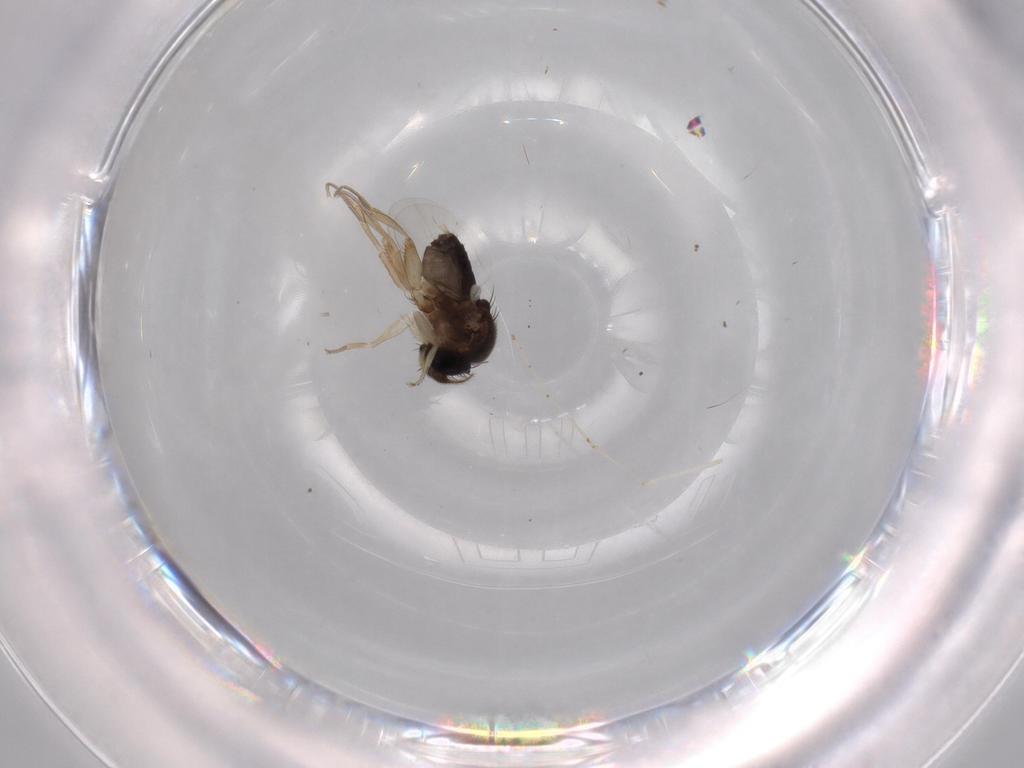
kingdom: Animalia
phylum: Arthropoda
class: Insecta
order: Diptera
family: Phoridae
